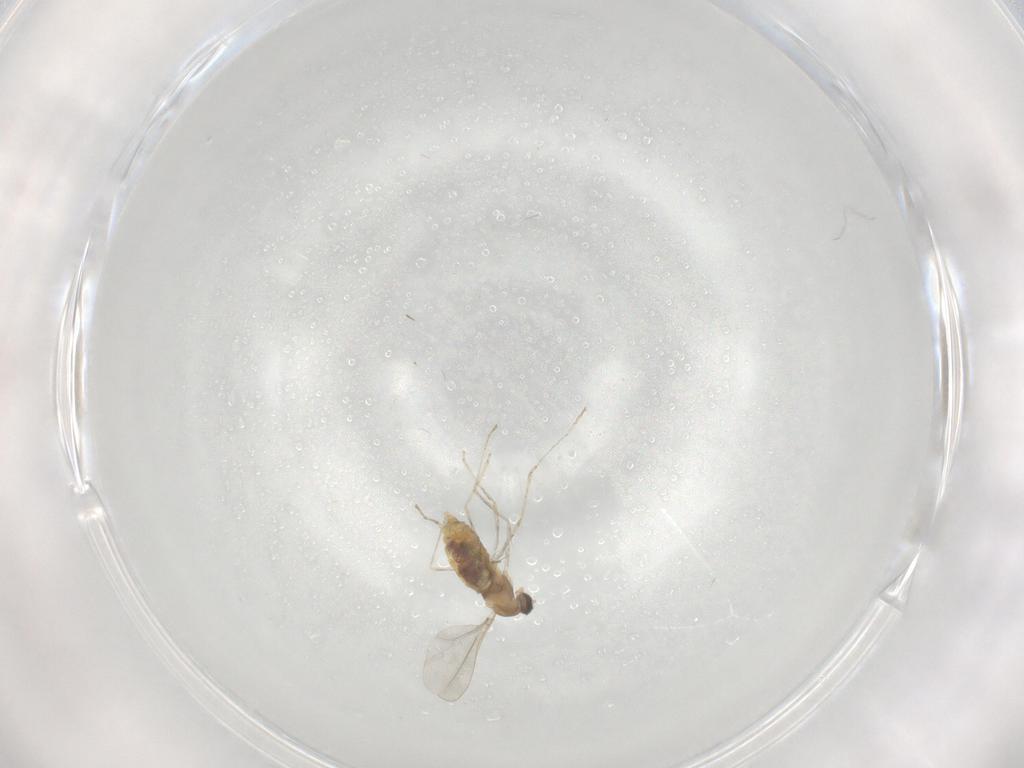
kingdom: Animalia
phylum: Arthropoda
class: Insecta
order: Diptera
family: Cecidomyiidae
